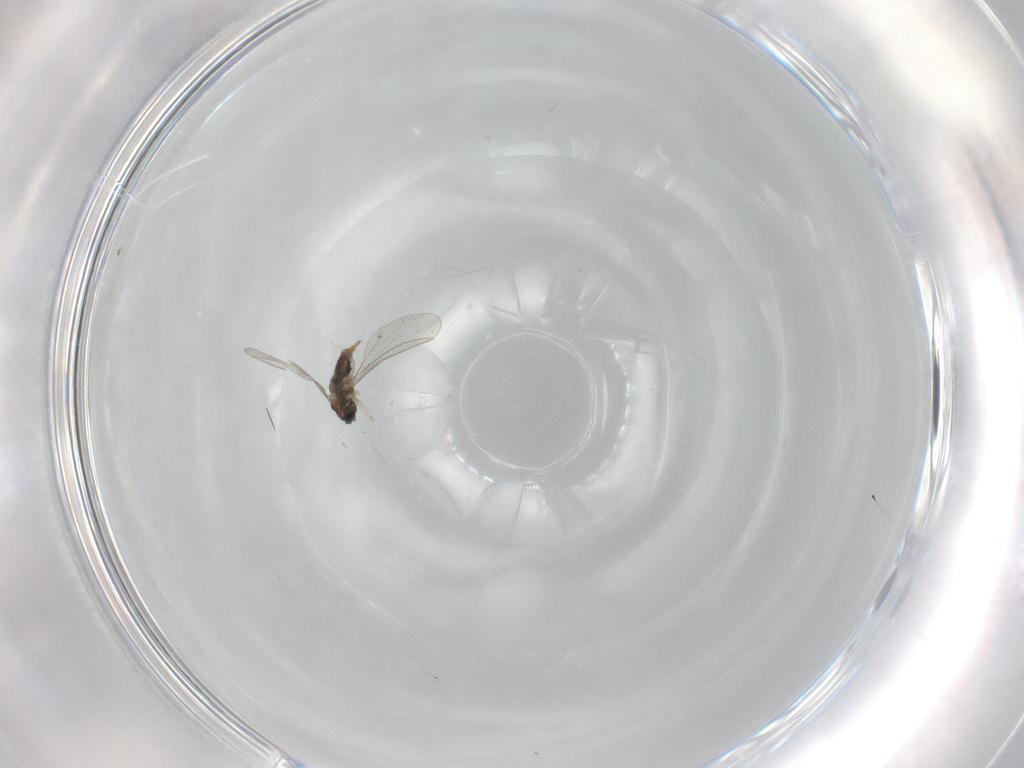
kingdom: Animalia
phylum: Arthropoda
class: Insecta
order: Diptera
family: Cecidomyiidae
